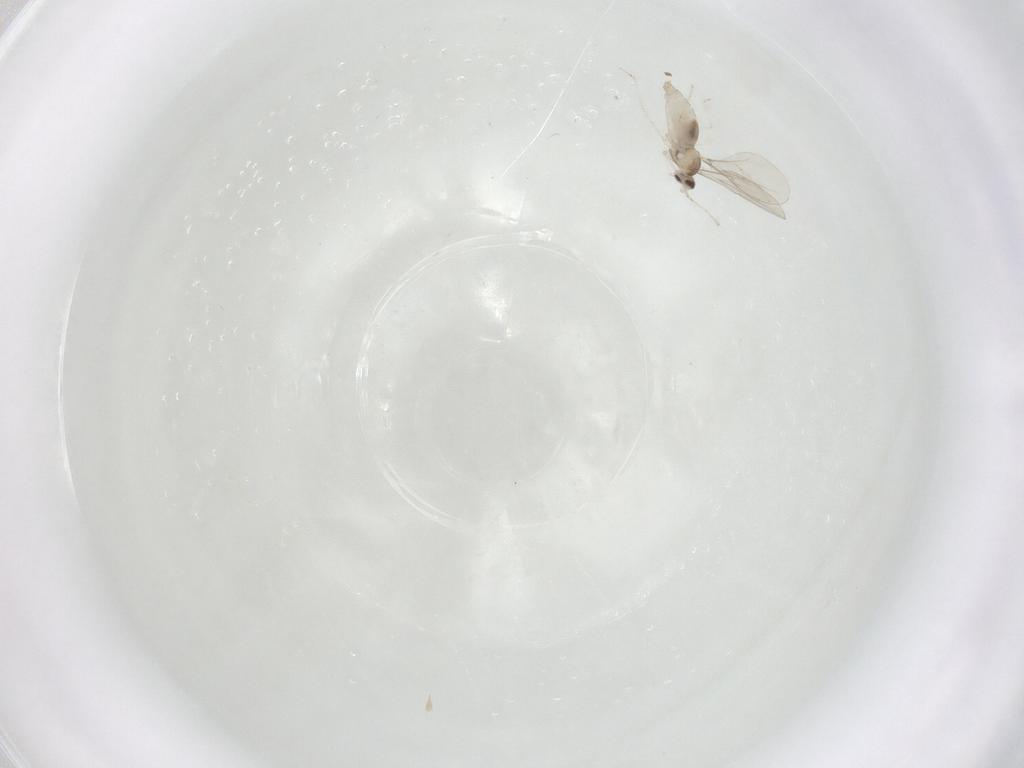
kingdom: Animalia
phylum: Arthropoda
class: Insecta
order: Diptera
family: Cecidomyiidae
